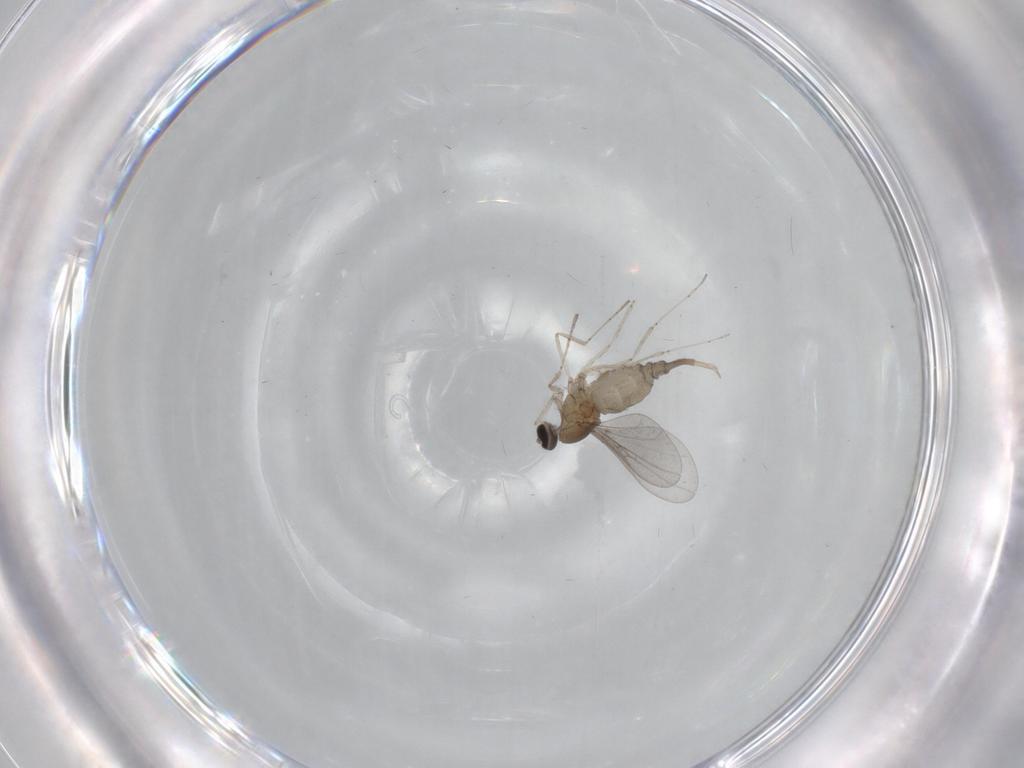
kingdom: Animalia
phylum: Arthropoda
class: Insecta
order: Diptera
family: Cecidomyiidae
